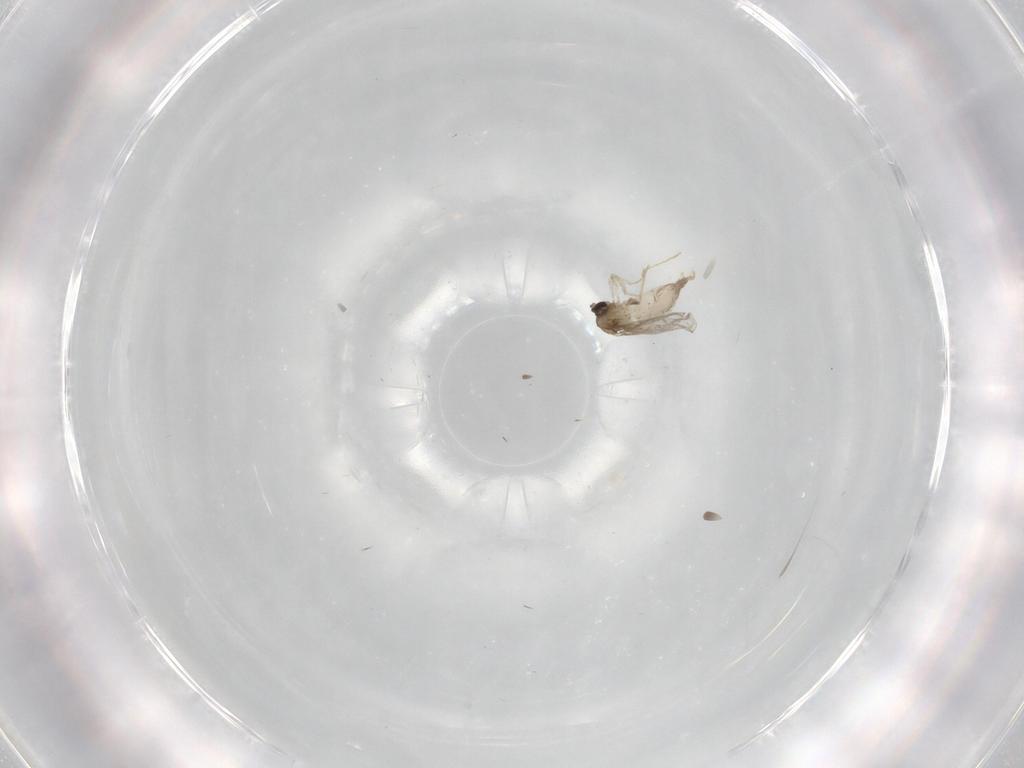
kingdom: Animalia
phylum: Arthropoda
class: Insecta
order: Diptera
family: Cecidomyiidae
